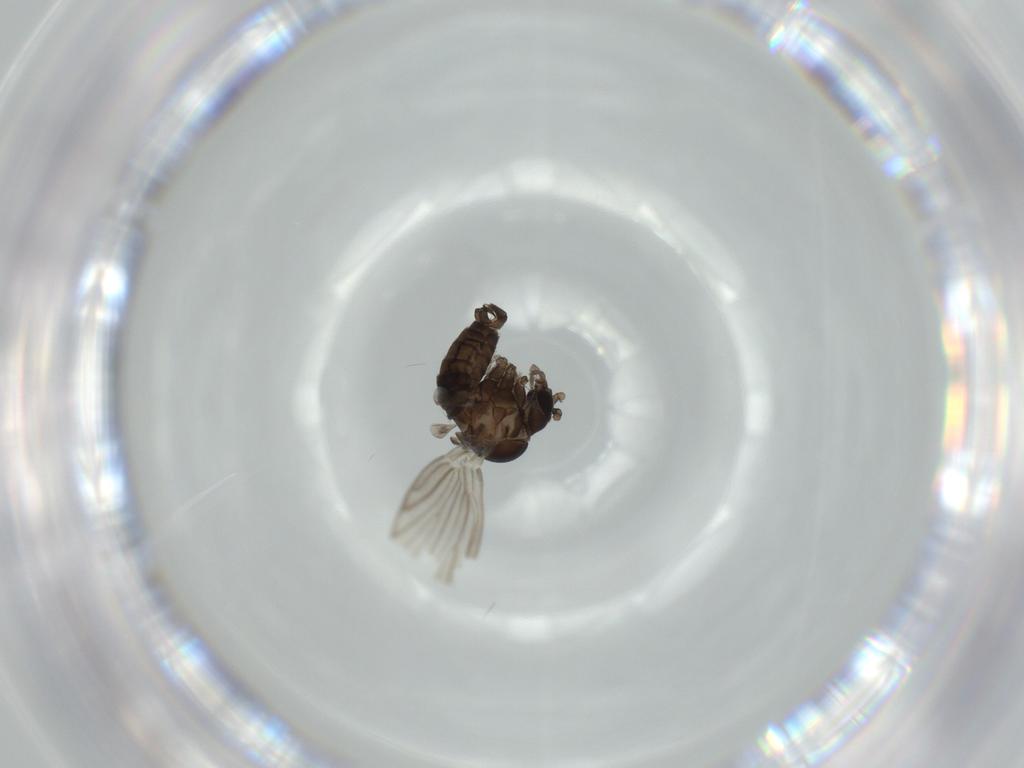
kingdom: Animalia
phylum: Arthropoda
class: Insecta
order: Diptera
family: Psychodidae
